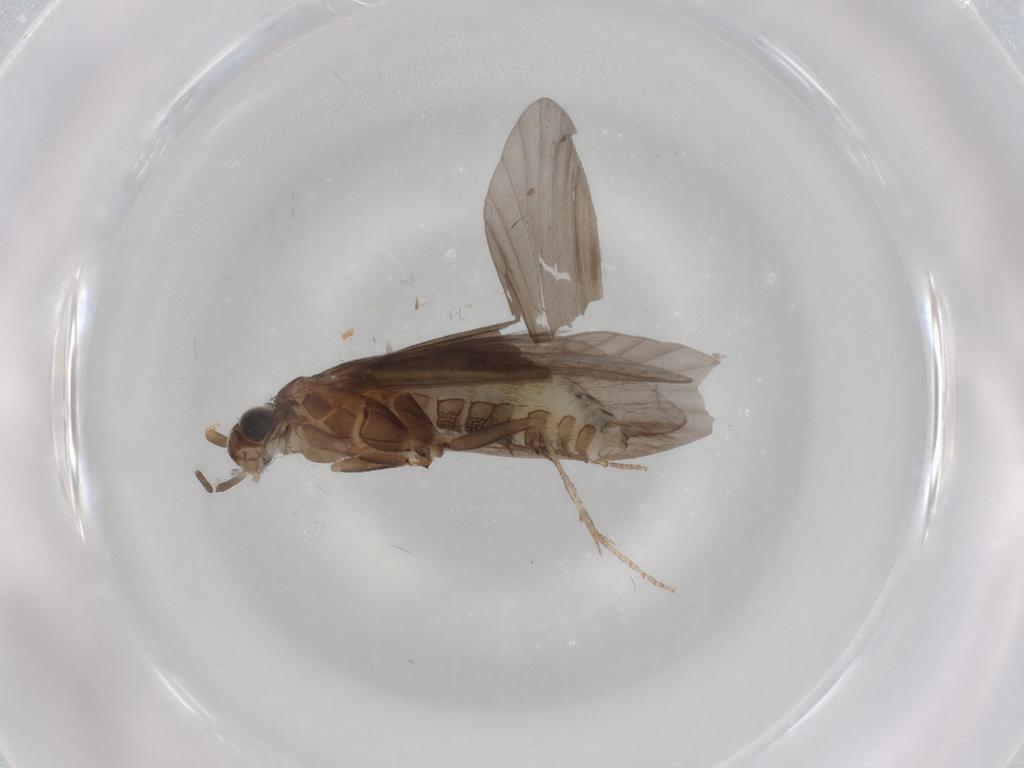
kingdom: Animalia
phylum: Arthropoda
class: Insecta
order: Trichoptera
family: Helicopsychidae
